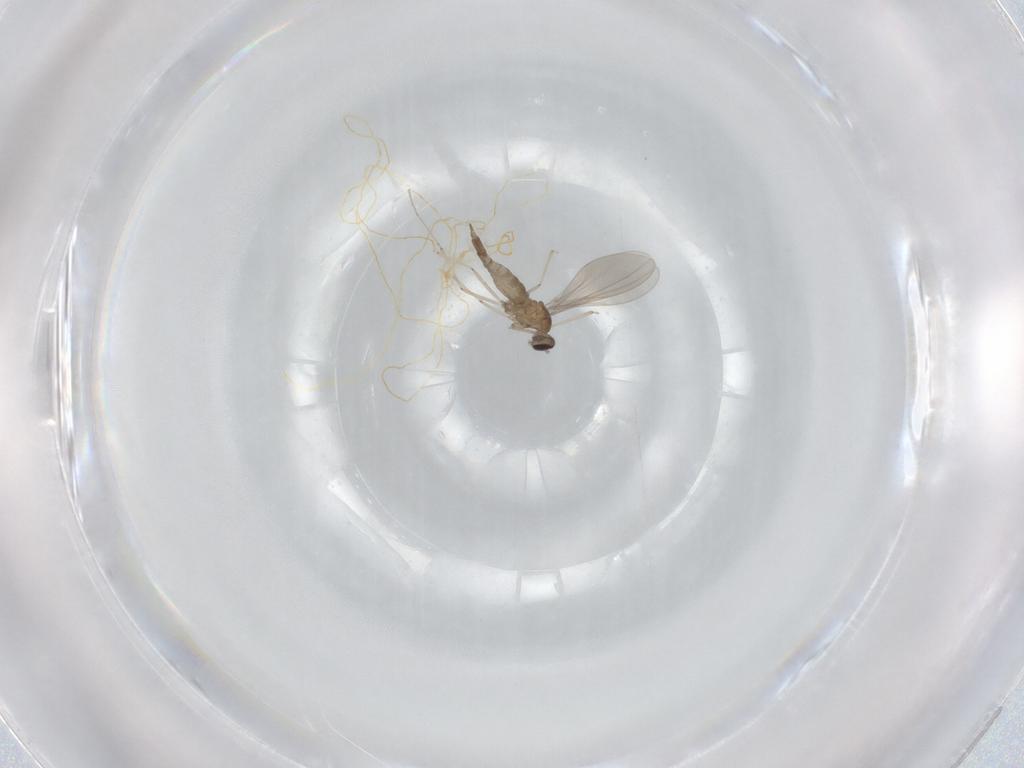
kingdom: Animalia
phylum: Arthropoda
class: Insecta
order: Diptera
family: Cecidomyiidae
